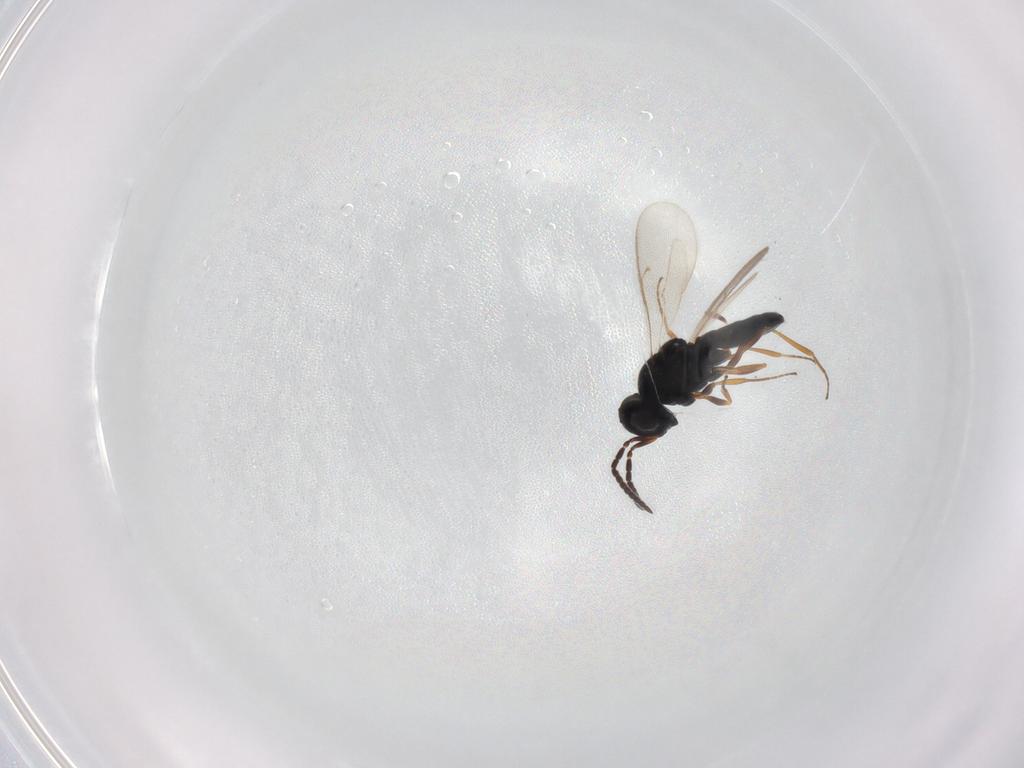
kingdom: Animalia
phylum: Arthropoda
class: Insecta
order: Hymenoptera
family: Scelionidae
